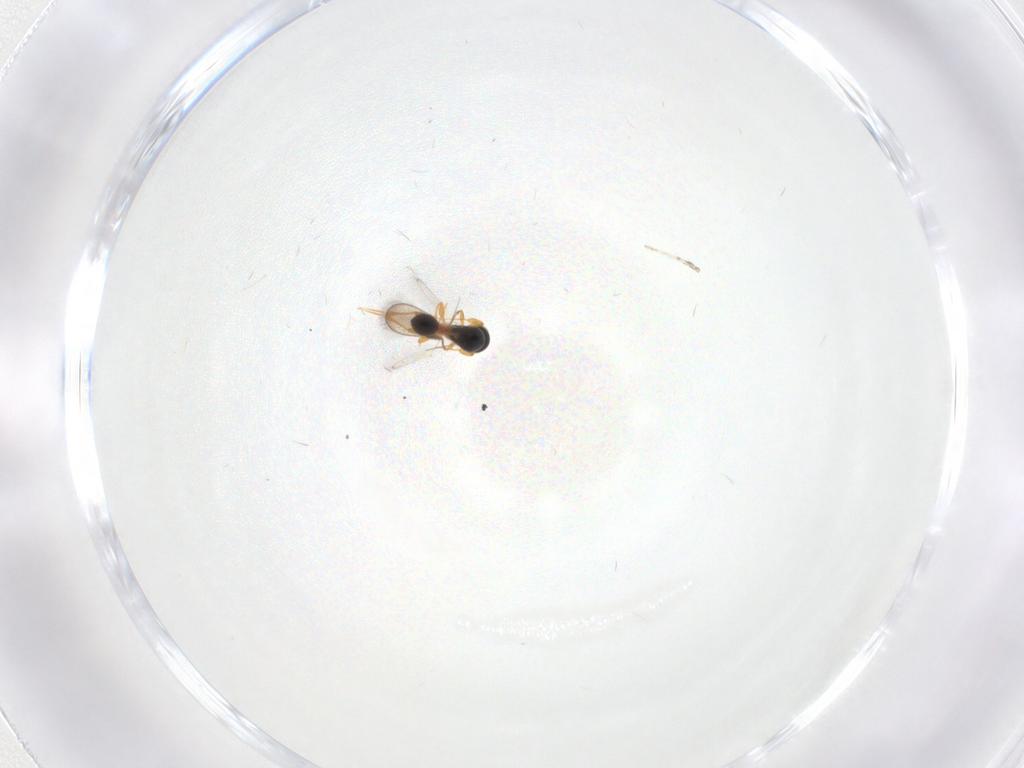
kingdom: Animalia
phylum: Arthropoda
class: Insecta
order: Hymenoptera
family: Platygastridae
